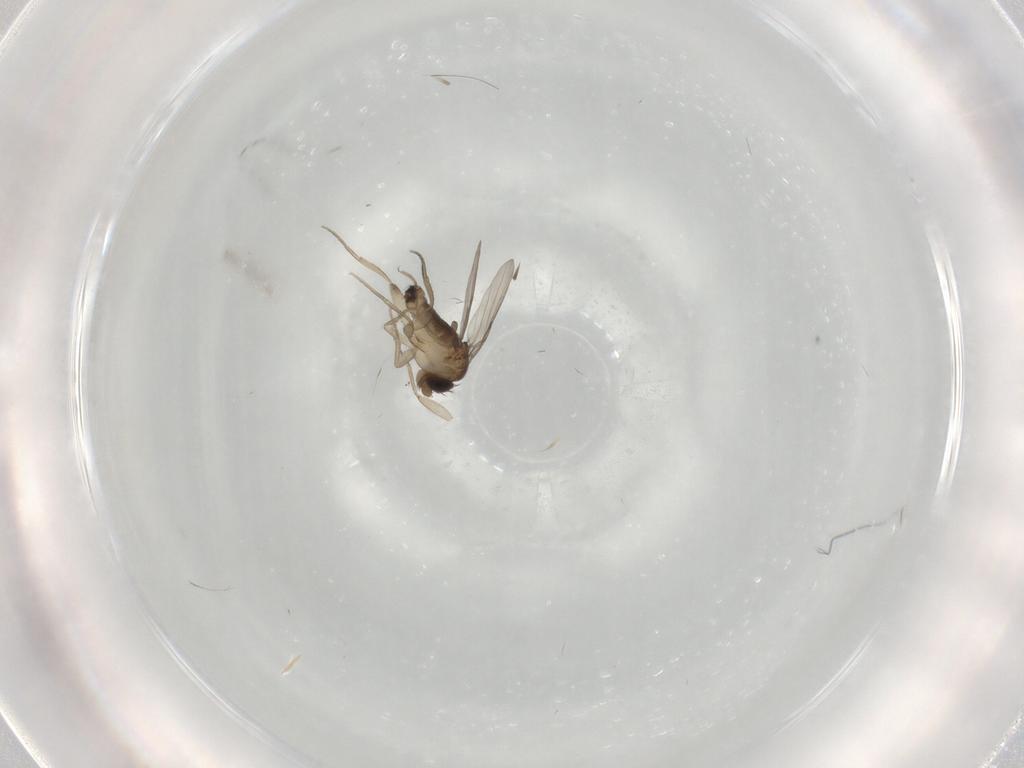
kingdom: Animalia
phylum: Arthropoda
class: Insecta
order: Diptera
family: Phoridae
